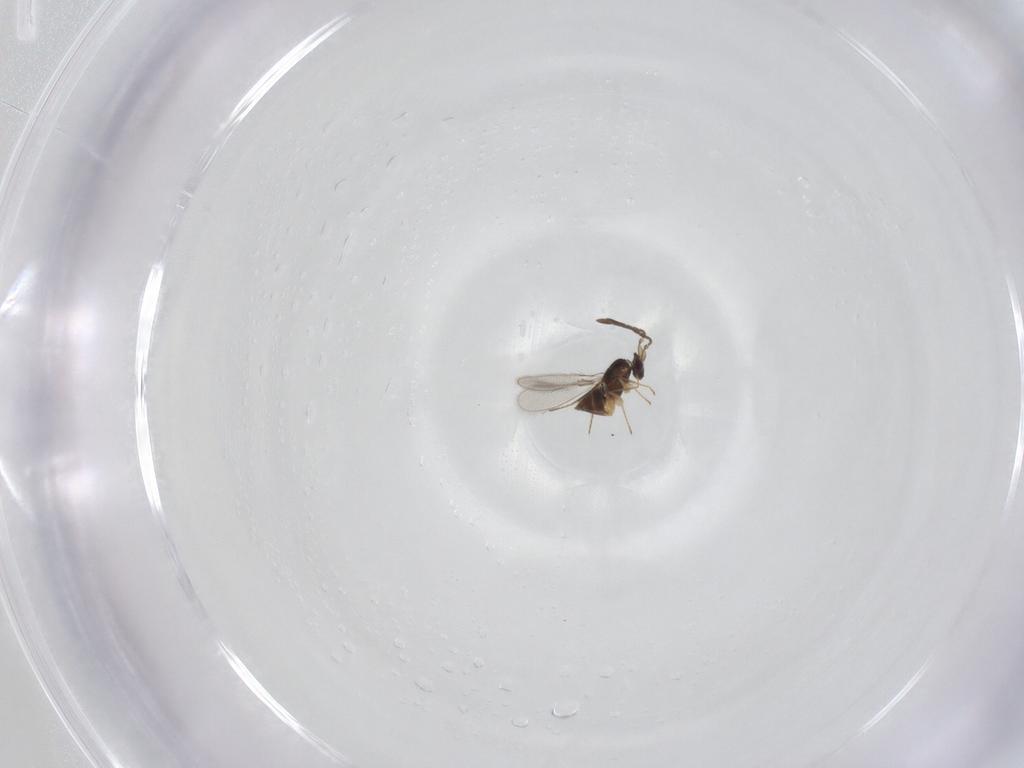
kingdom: Animalia
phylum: Arthropoda
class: Insecta
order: Hymenoptera
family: Mymaridae
